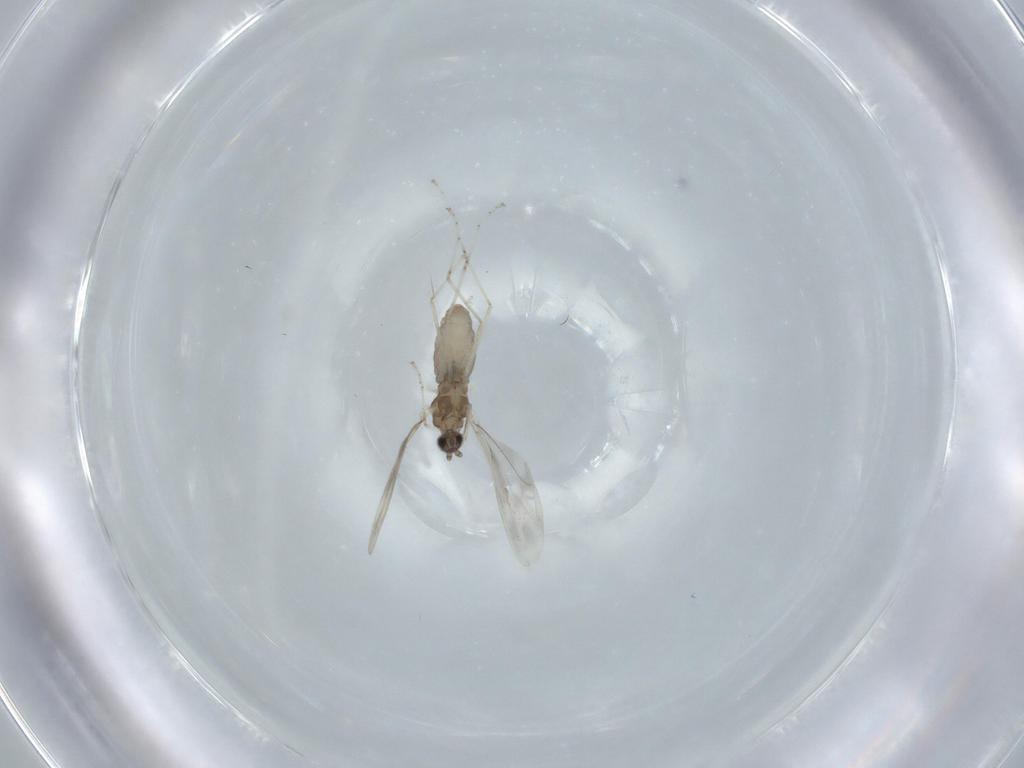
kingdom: Animalia
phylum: Arthropoda
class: Insecta
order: Diptera
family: Cecidomyiidae
